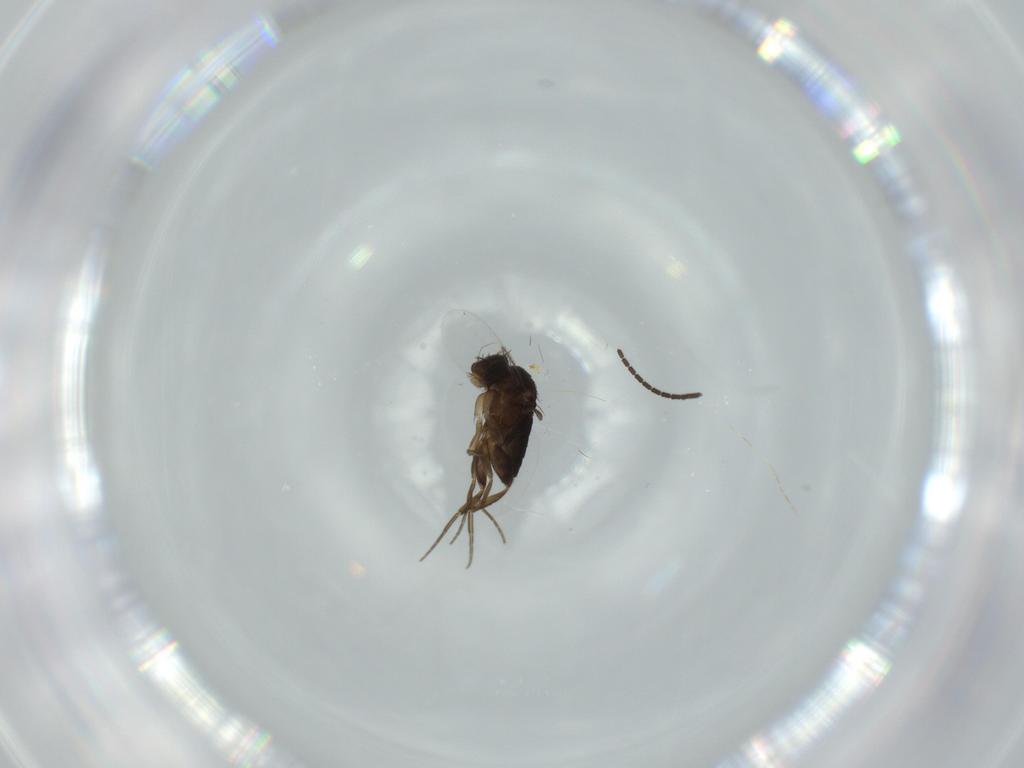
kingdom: Animalia
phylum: Arthropoda
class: Insecta
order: Diptera
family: Phoridae
